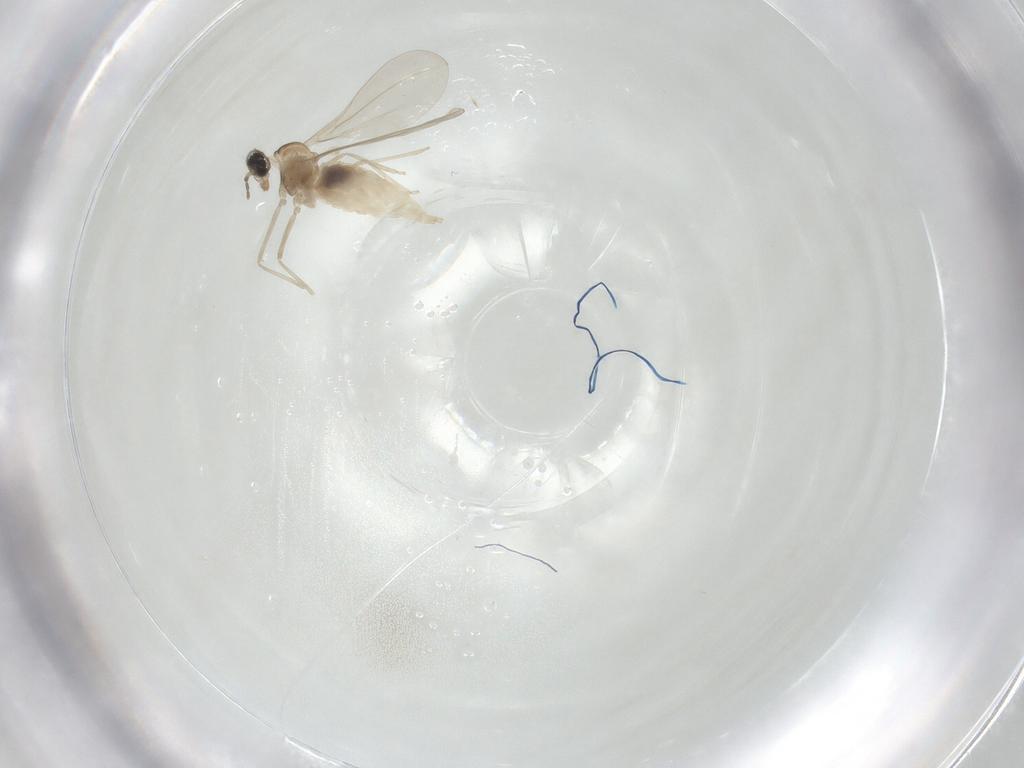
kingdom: Animalia
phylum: Arthropoda
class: Insecta
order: Diptera
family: Cecidomyiidae
